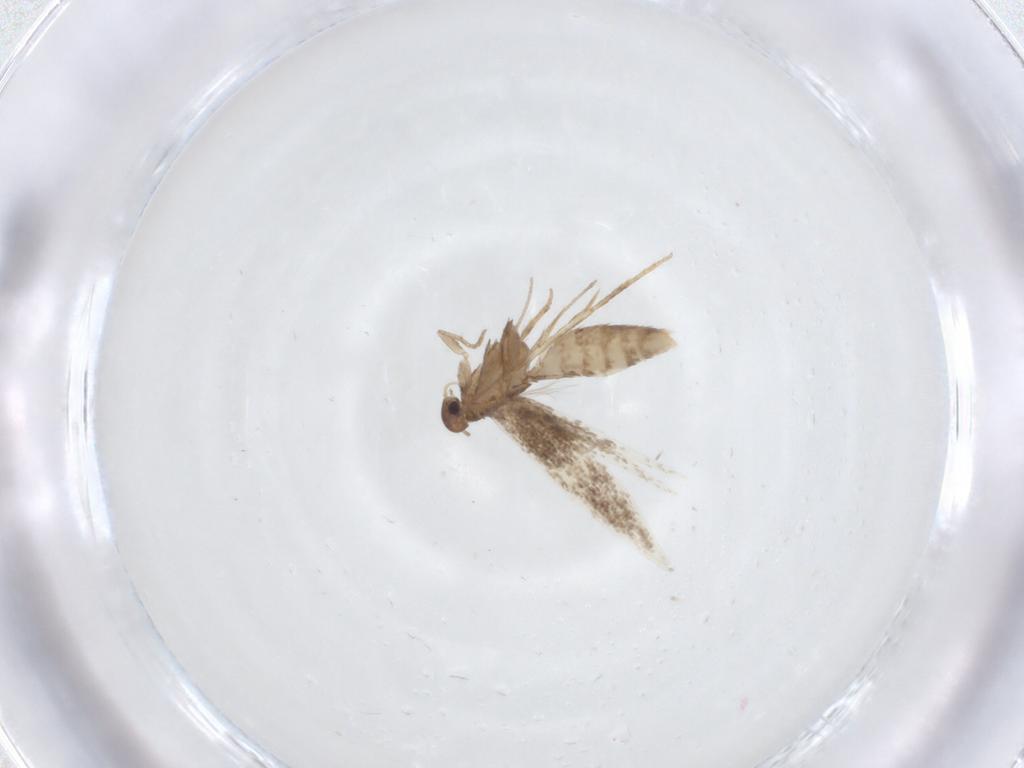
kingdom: Animalia
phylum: Arthropoda
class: Insecta
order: Lepidoptera
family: Gelechiidae
